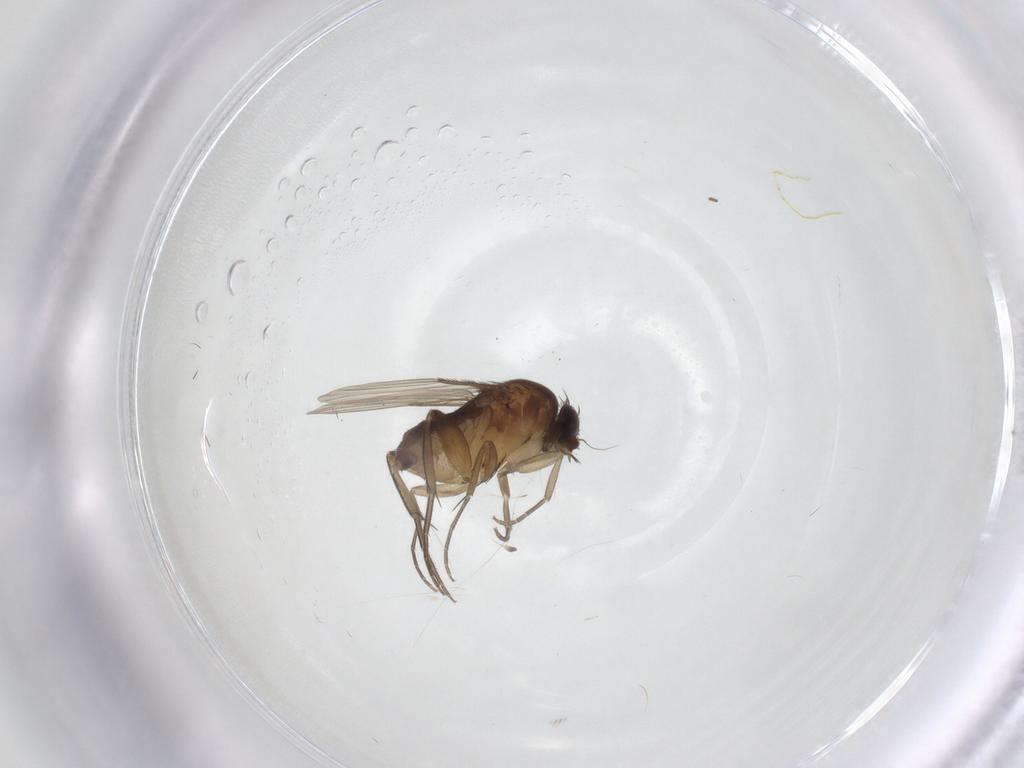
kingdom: Animalia
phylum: Arthropoda
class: Insecta
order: Diptera
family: Phoridae
